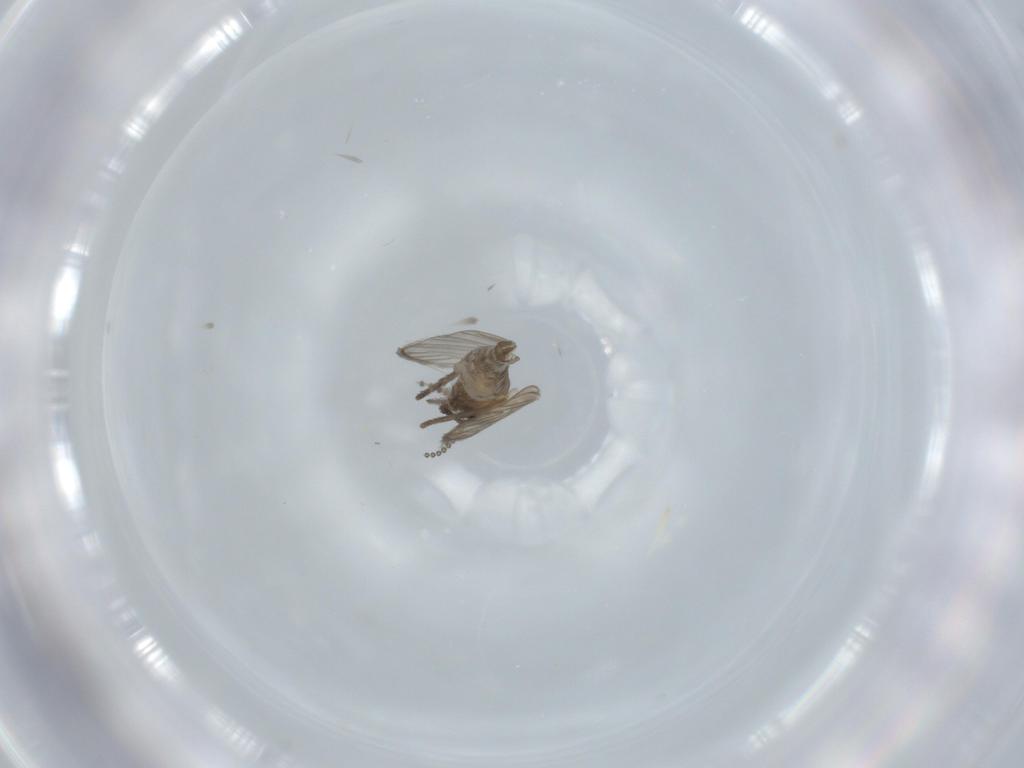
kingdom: Animalia
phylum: Arthropoda
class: Insecta
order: Diptera
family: Psychodidae
